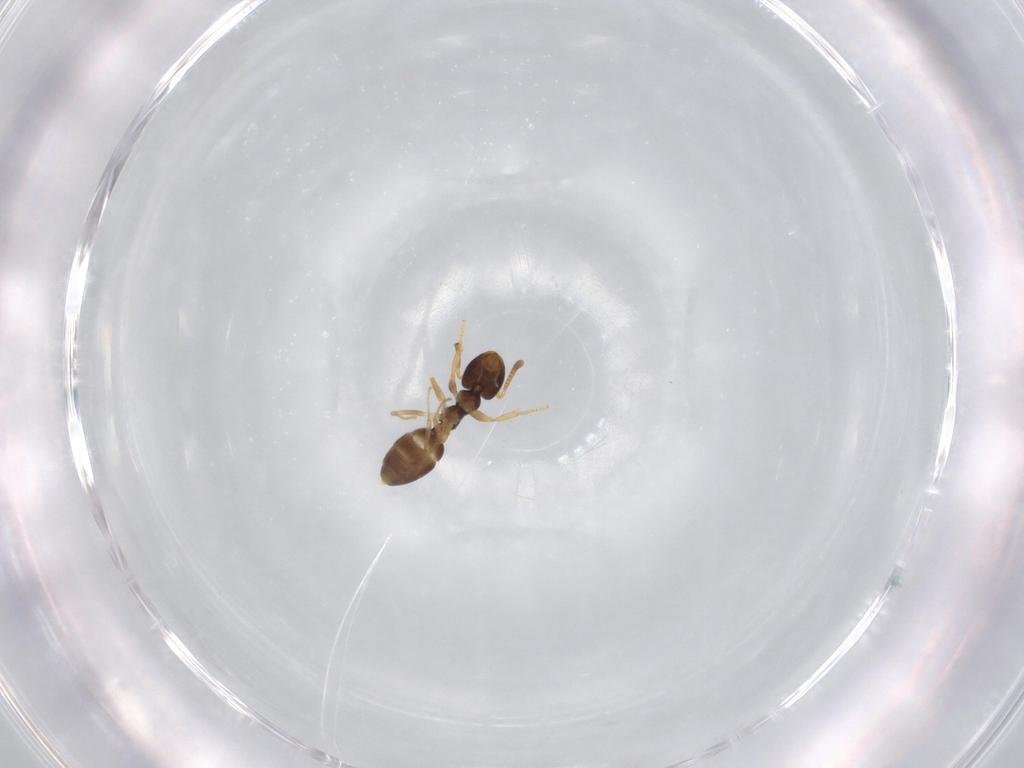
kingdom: Animalia
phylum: Arthropoda
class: Insecta
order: Hymenoptera
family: Formicidae
